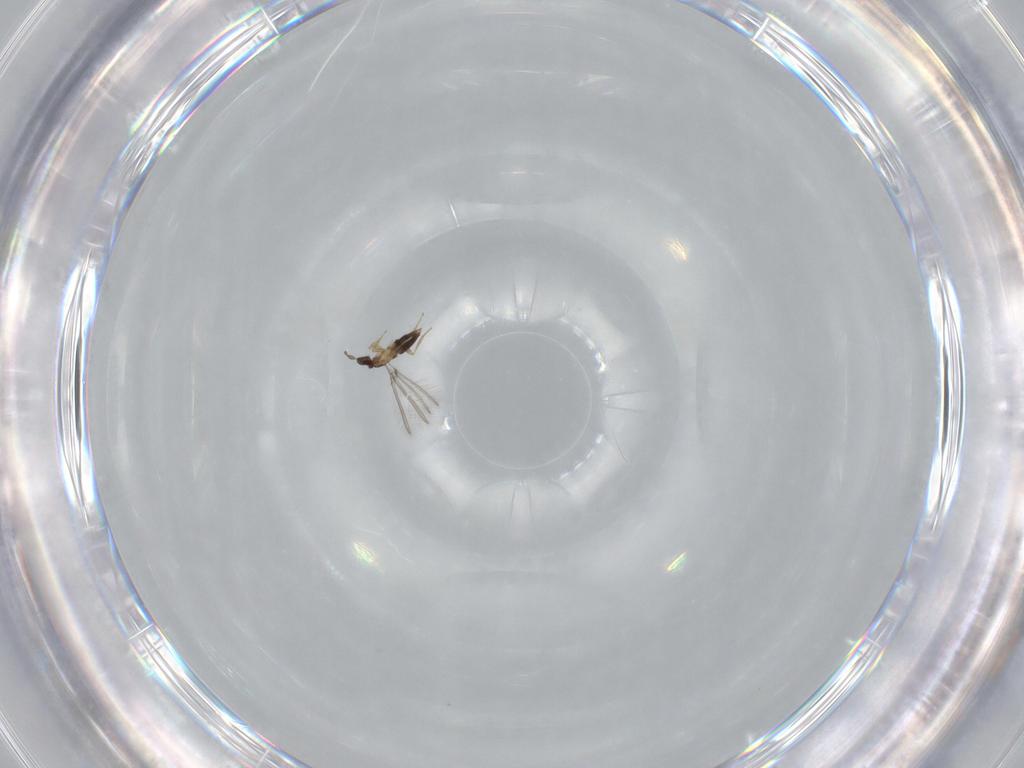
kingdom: Animalia
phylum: Arthropoda
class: Insecta
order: Hymenoptera
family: Mymaridae
